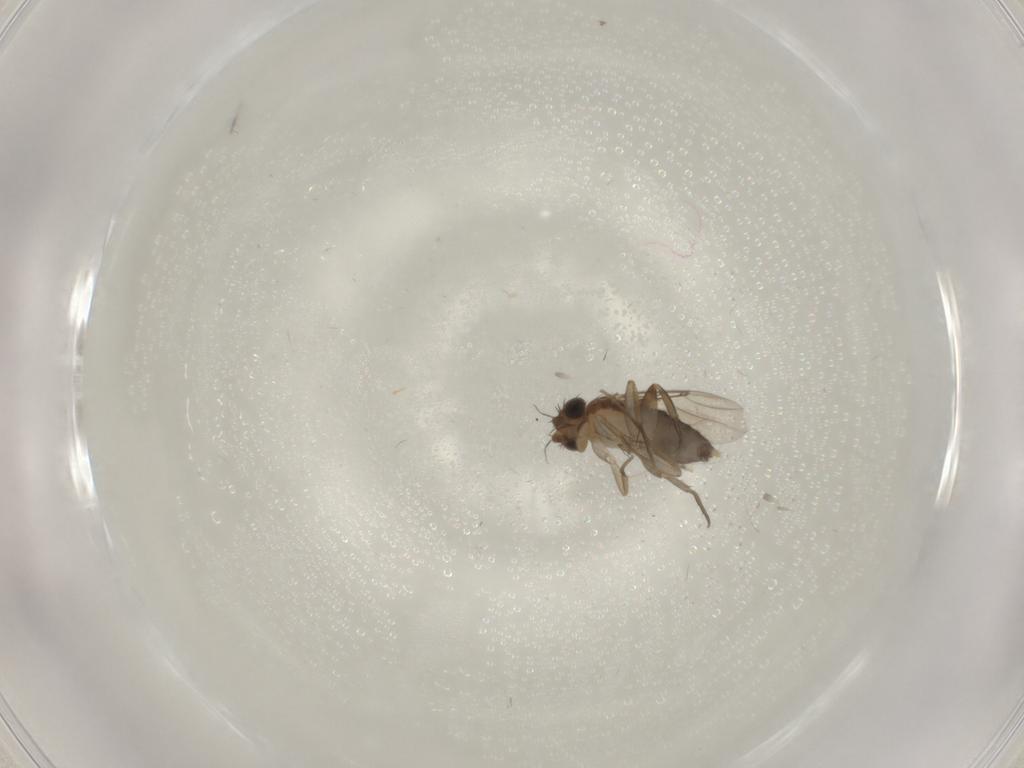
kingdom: Animalia
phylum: Arthropoda
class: Insecta
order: Diptera
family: Phoridae
